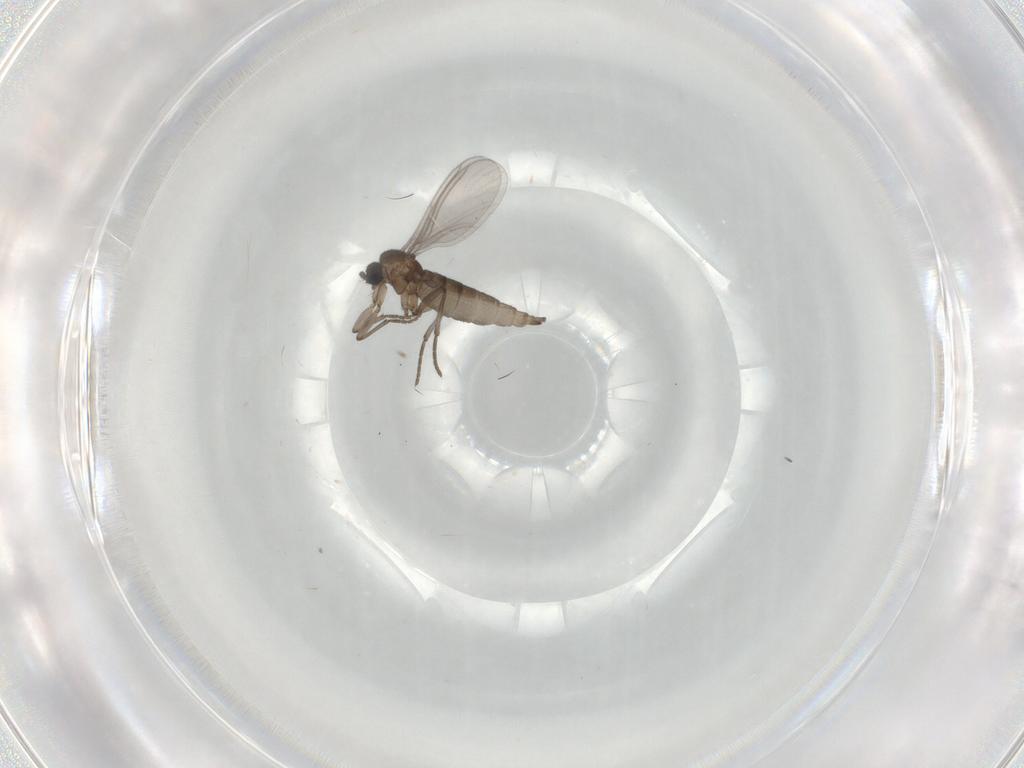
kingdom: Animalia
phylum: Arthropoda
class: Insecta
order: Diptera
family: Sciaridae
